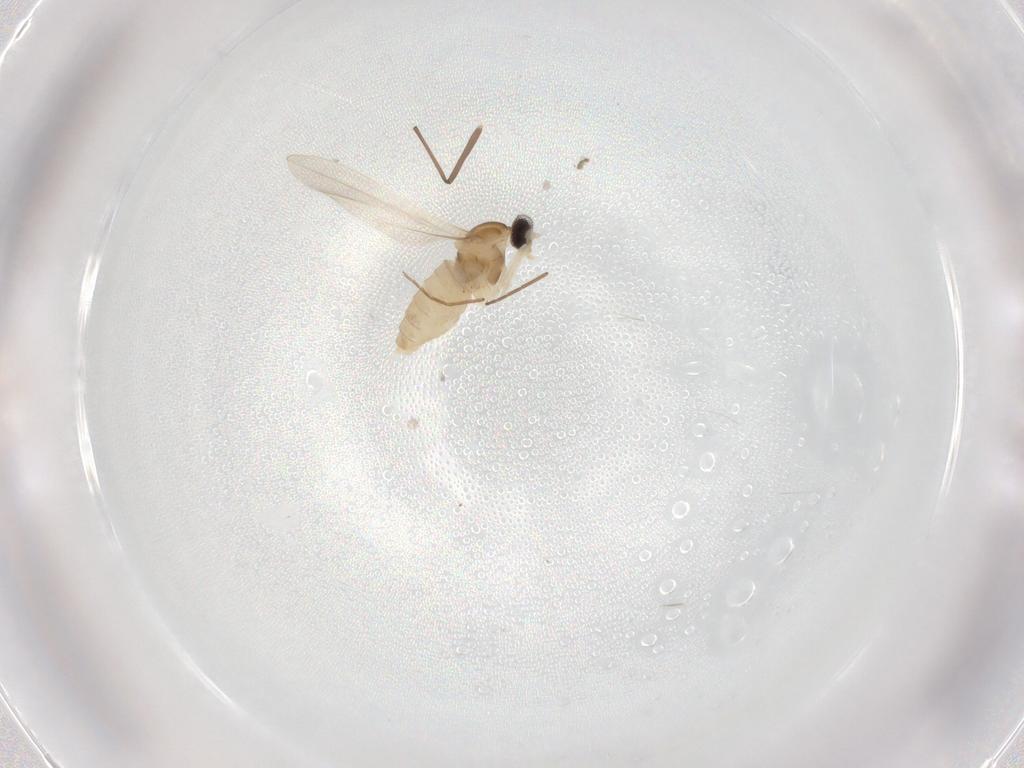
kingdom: Animalia
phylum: Arthropoda
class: Insecta
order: Diptera
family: Cecidomyiidae
